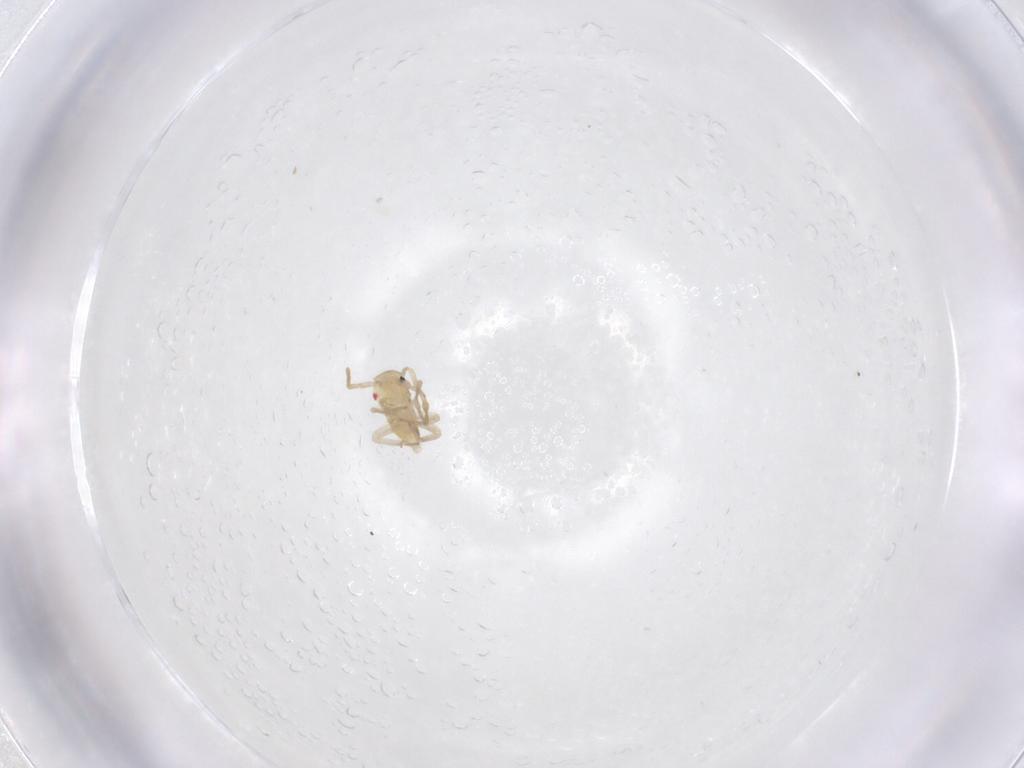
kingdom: Animalia
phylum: Arthropoda
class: Insecta
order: Hemiptera
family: Miridae
